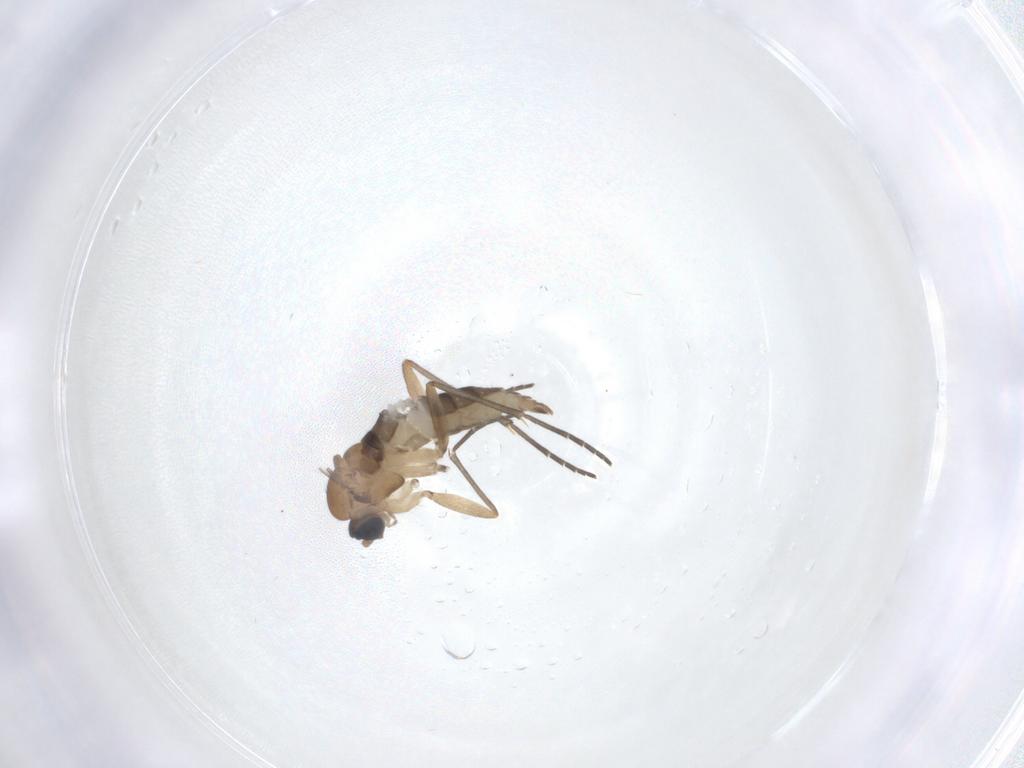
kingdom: Animalia
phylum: Arthropoda
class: Insecta
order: Diptera
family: Sciaridae
